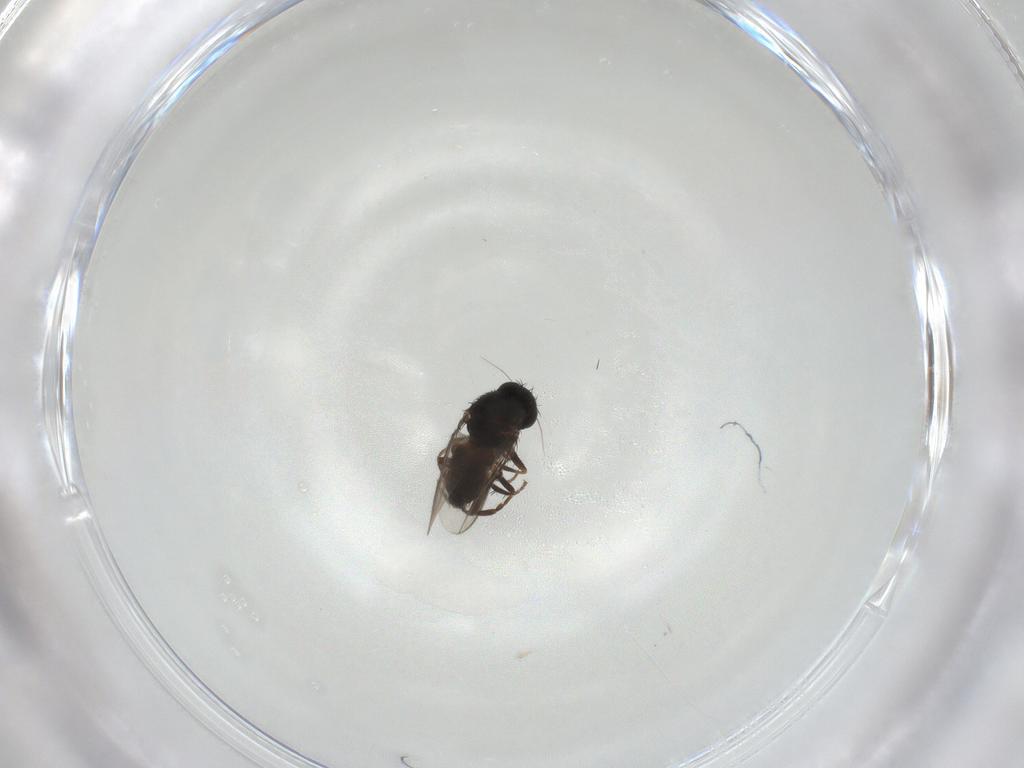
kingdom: Animalia
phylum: Arthropoda
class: Insecta
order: Diptera
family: Sphaeroceridae
